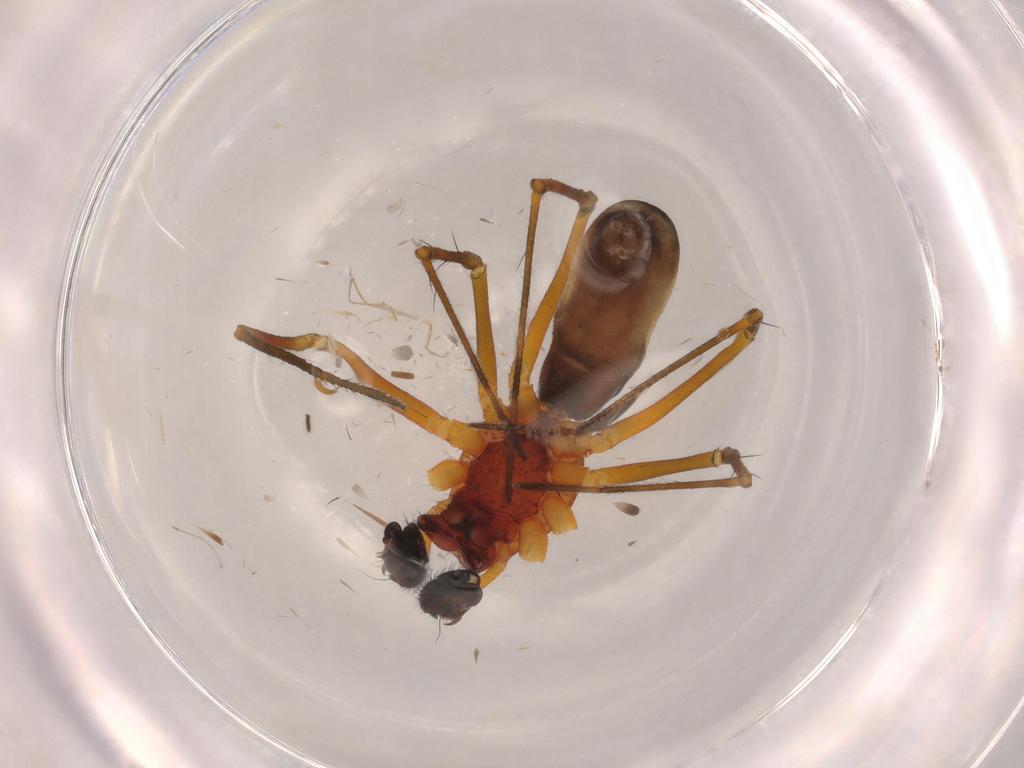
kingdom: Animalia
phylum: Arthropoda
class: Arachnida
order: Araneae
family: Linyphiidae
